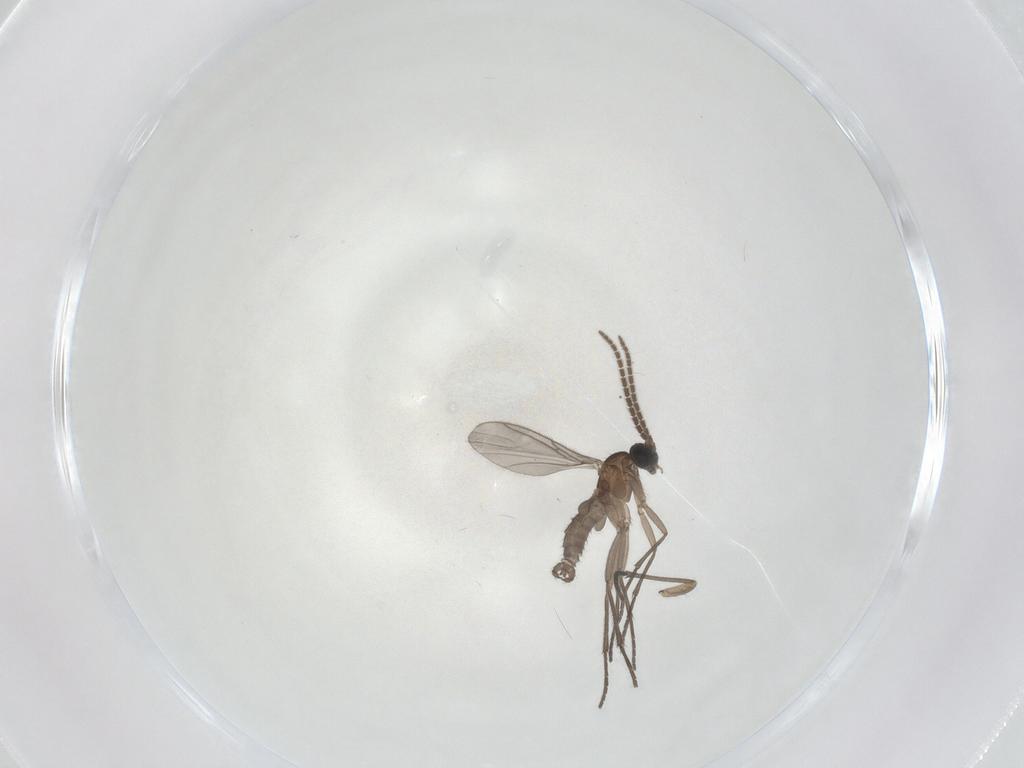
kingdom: Animalia
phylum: Arthropoda
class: Insecta
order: Diptera
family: Sciaridae
